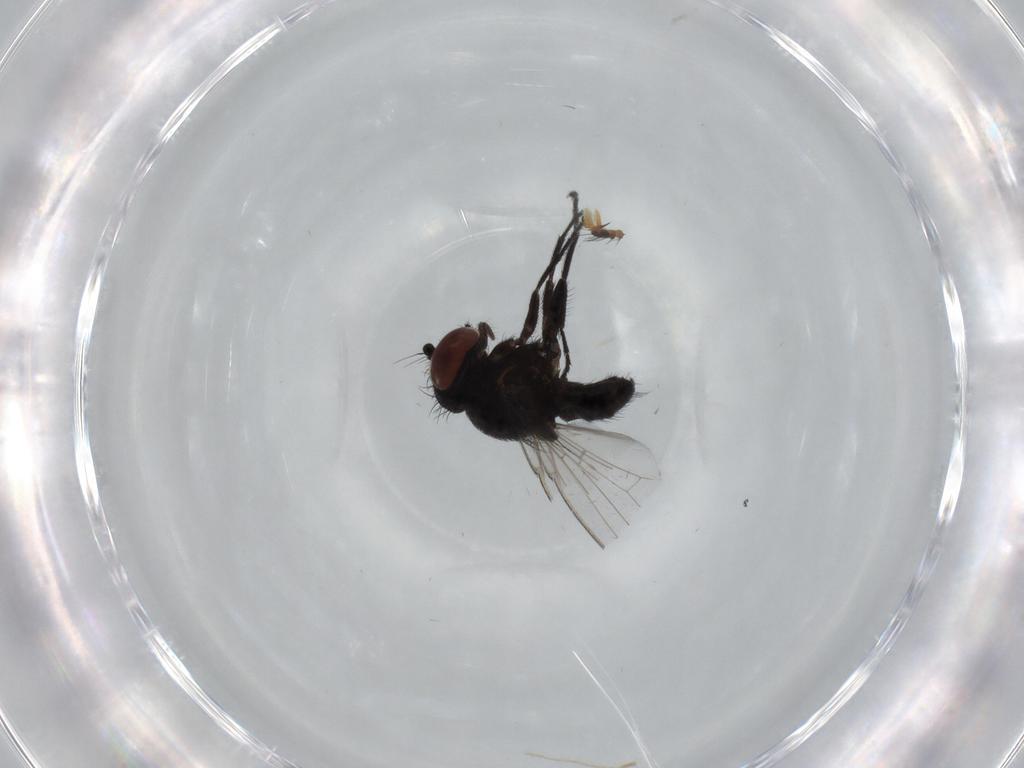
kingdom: Animalia
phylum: Arthropoda
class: Insecta
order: Diptera
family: Milichiidae
